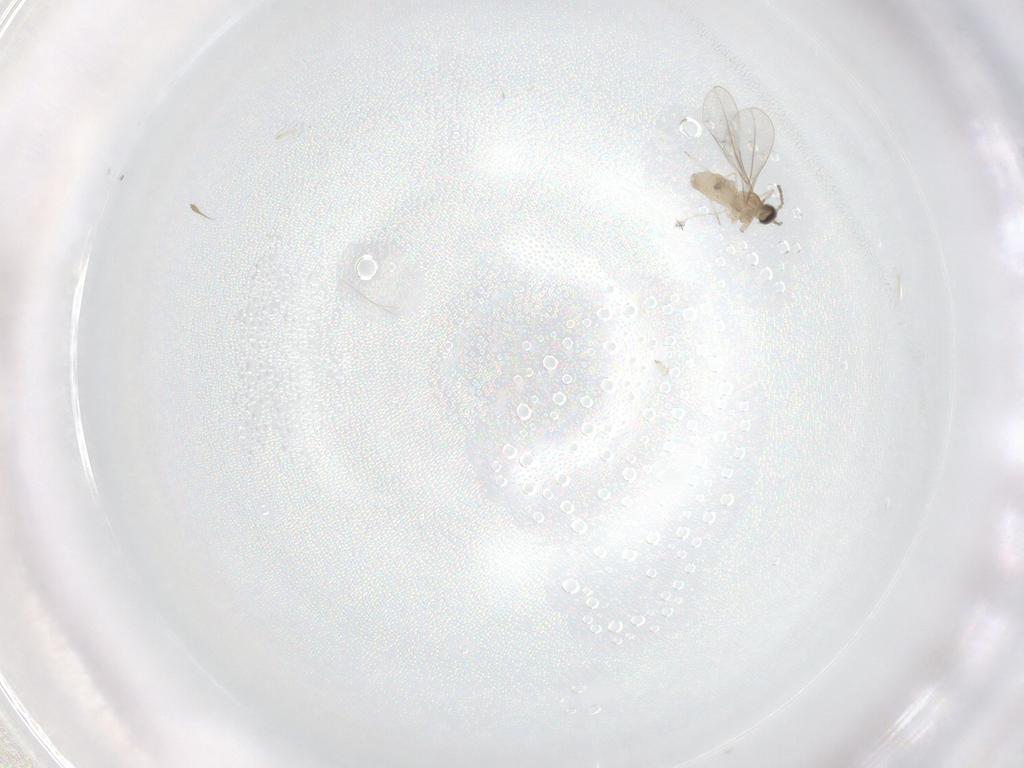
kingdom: Animalia
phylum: Arthropoda
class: Insecta
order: Diptera
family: Cecidomyiidae
